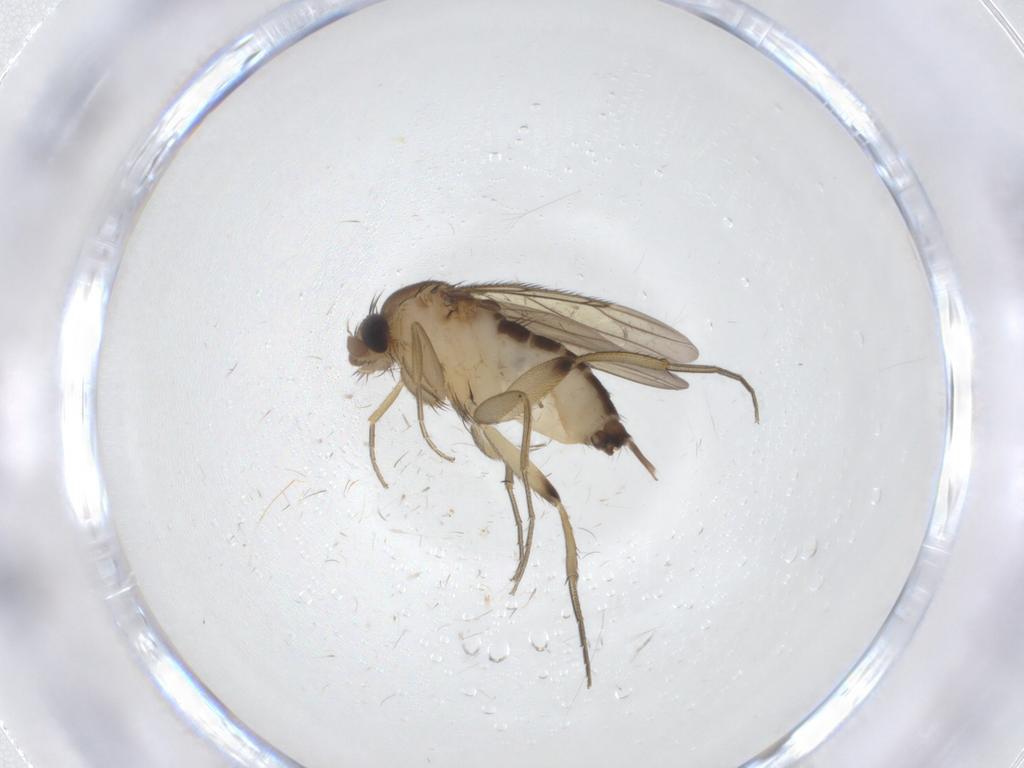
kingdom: Animalia
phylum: Arthropoda
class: Insecta
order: Diptera
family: Phoridae
